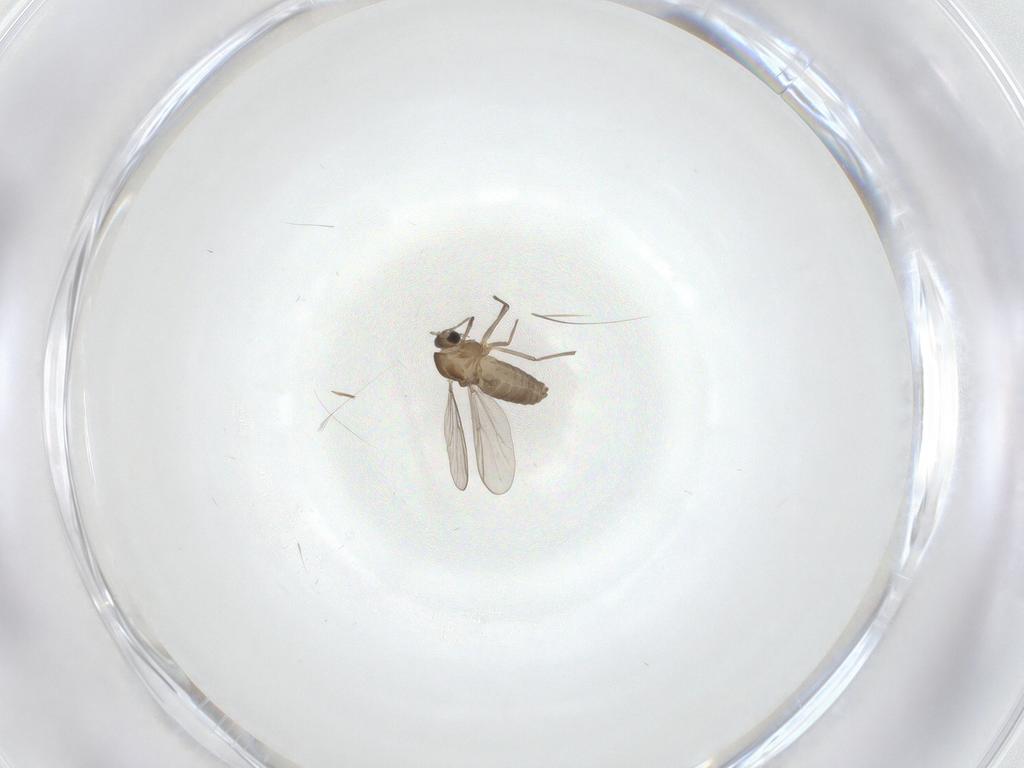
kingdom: Animalia
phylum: Arthropoda
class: Insecta
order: Diptera
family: Chironomidae
